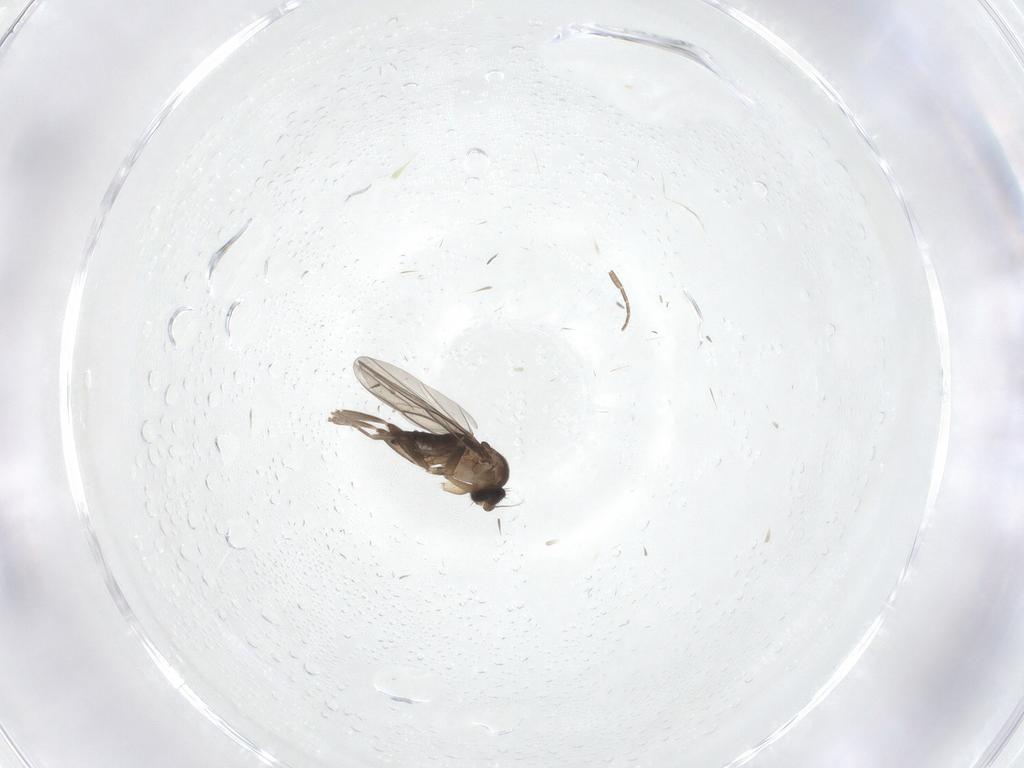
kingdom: Animalia
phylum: Arthropoda
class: Insecta
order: Diptera
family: Chironomidae
